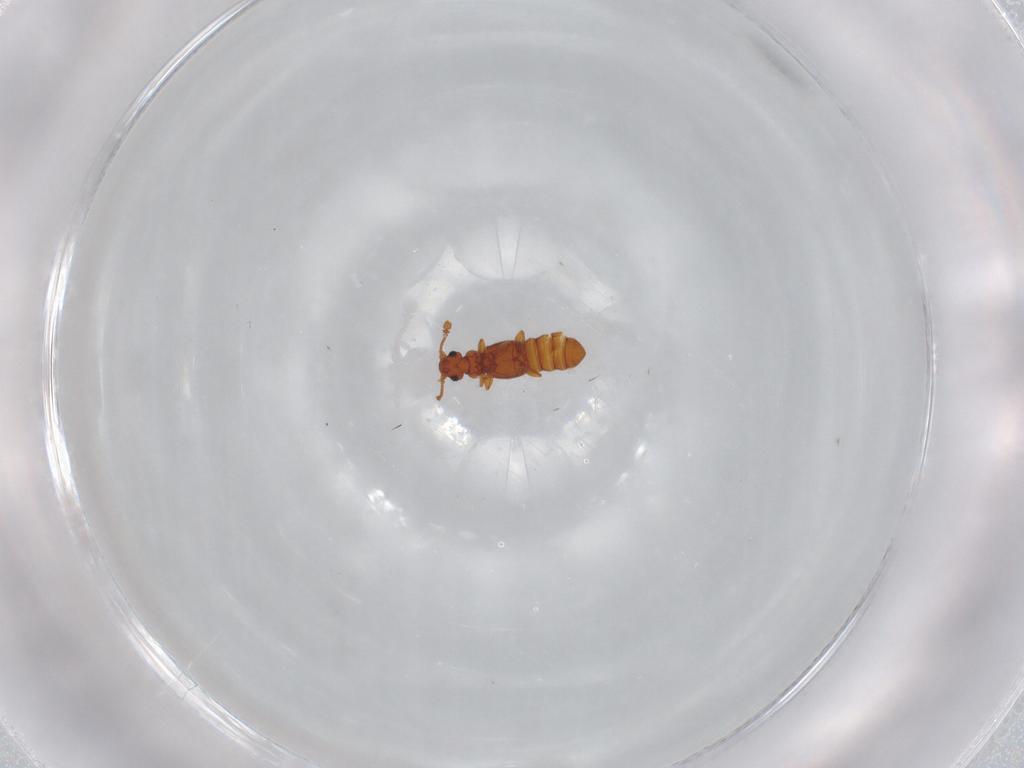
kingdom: Animalia
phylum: Arthropoda
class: Insecta
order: Coleoptera
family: Staphylinidae
